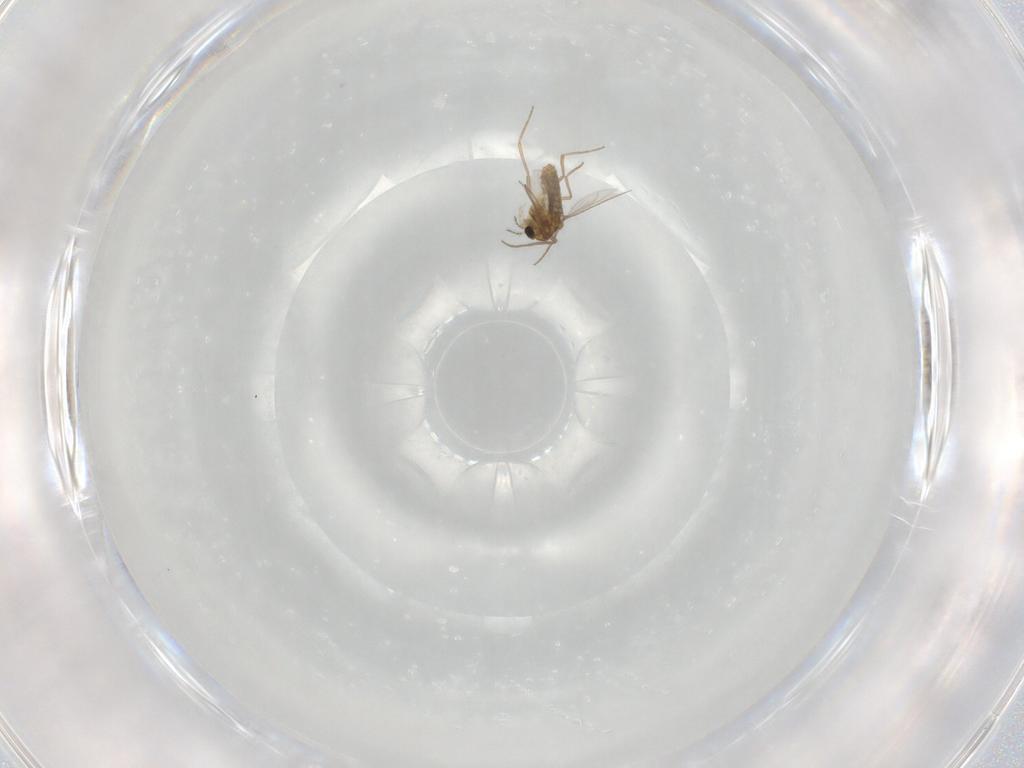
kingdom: Animalia
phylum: Arthropoda
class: Insecta
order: Diptera
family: Chironomidae
